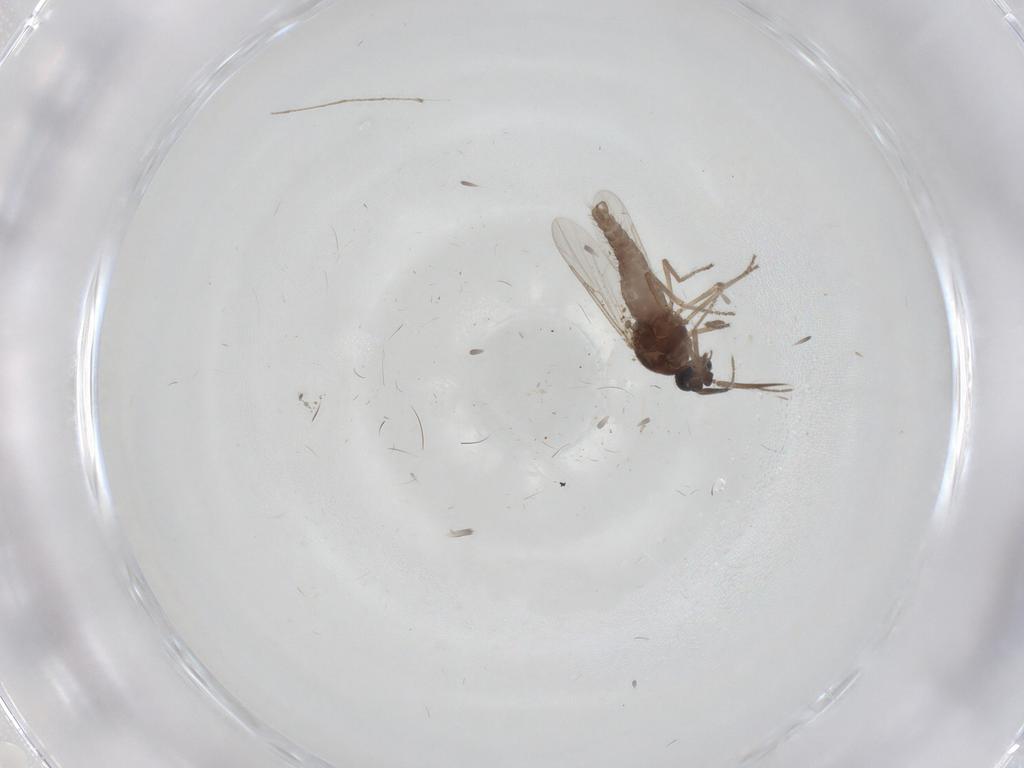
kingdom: Animalia
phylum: Arthropoda
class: Insecta
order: Diptera
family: Ceratopogonidae
